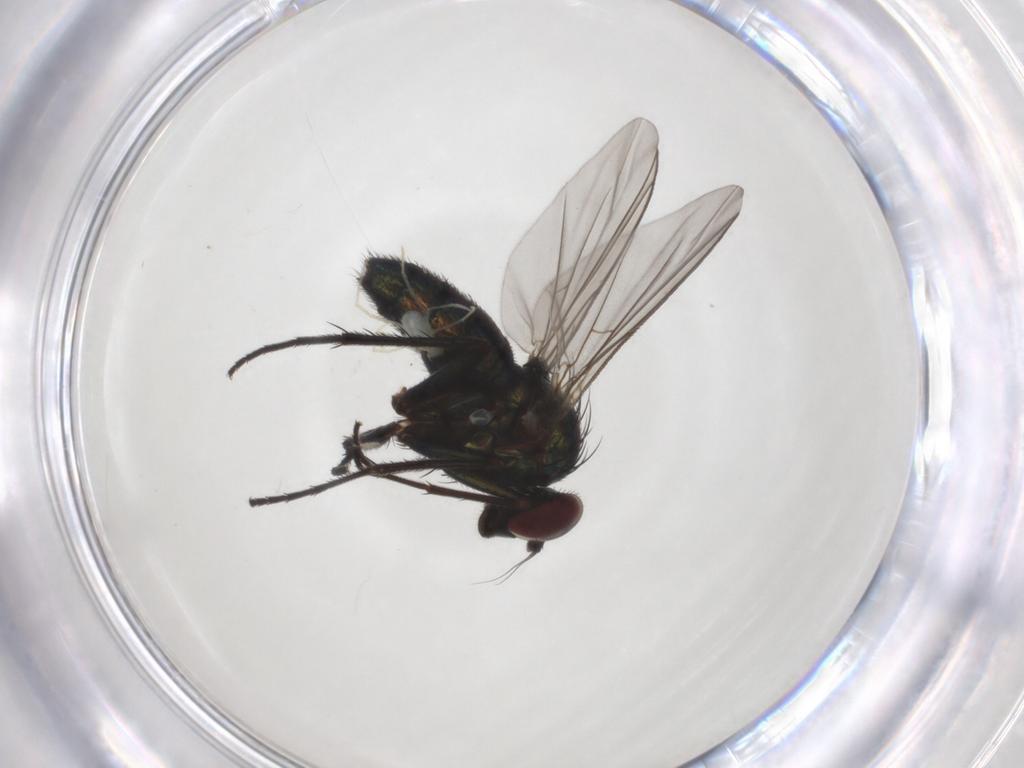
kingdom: Animalia
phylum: Arthropoda
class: Insecta
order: Diptera
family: Dolichopodidae
